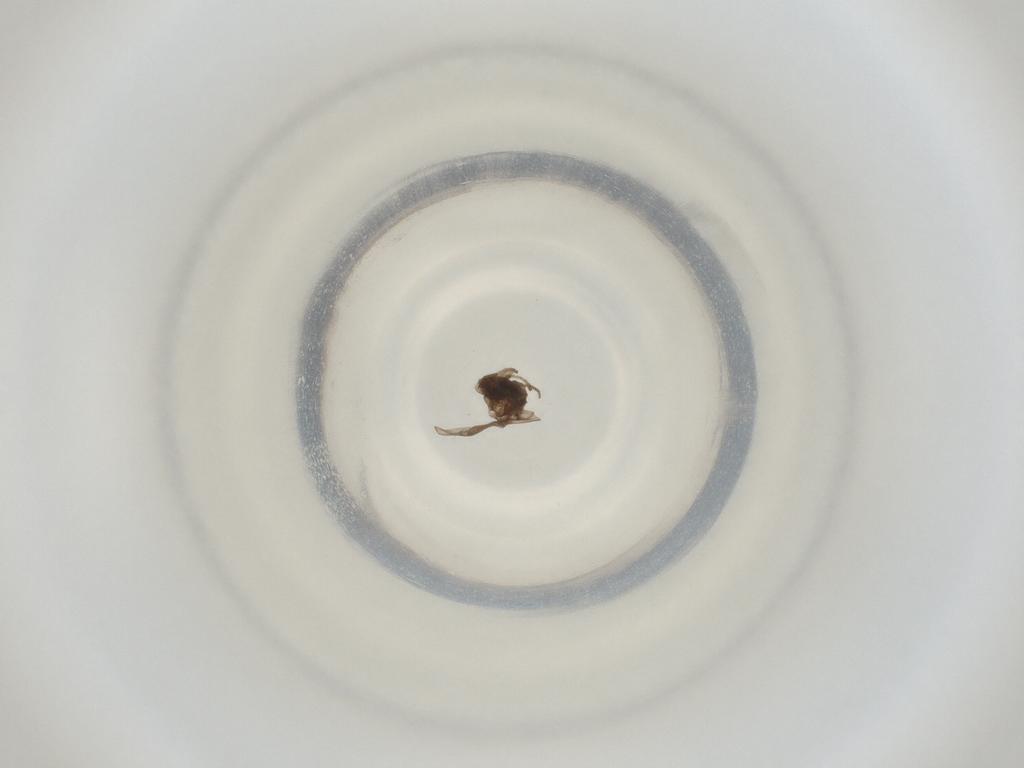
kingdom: Animalia
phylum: Arthropoda
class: Insecta
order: Diptera
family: Cecidomyiidae
